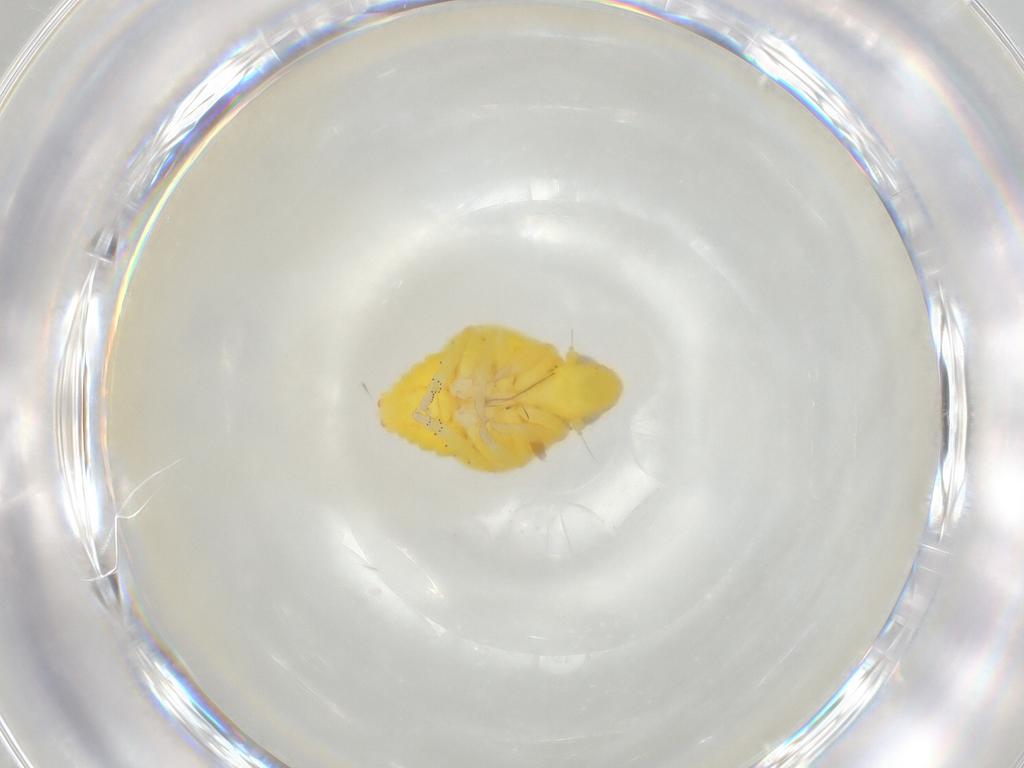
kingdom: Animalia
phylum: Arthropoda
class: Insecta
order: Hemiptera
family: Tropiduchidae
